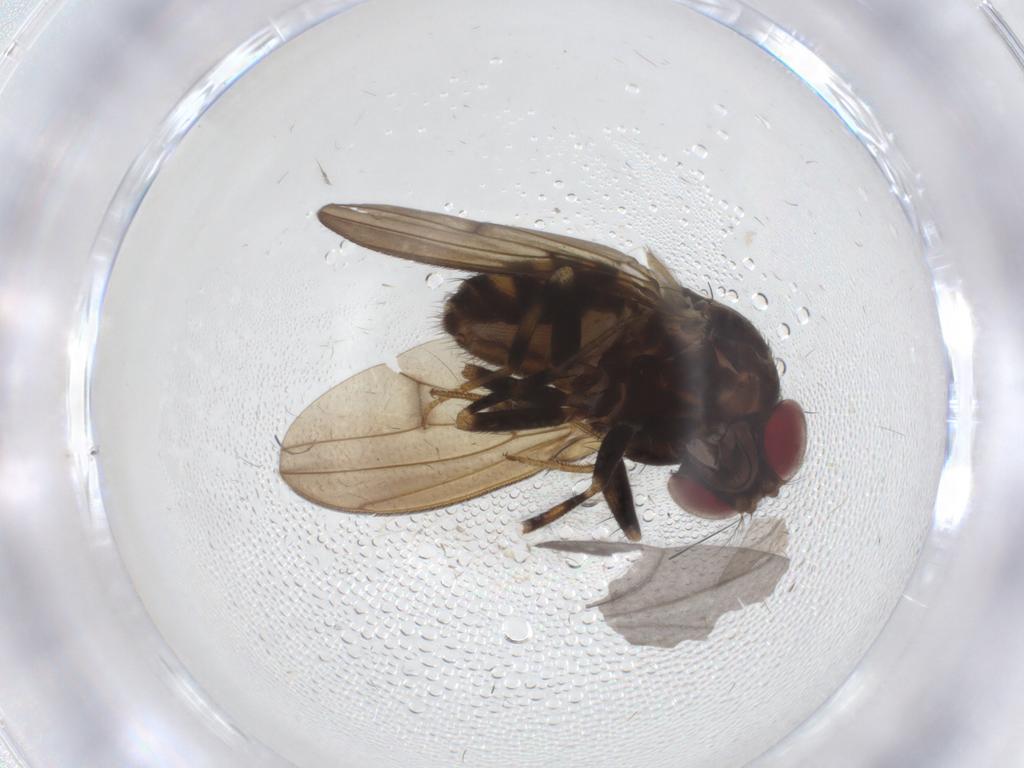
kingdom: Animalia
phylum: Arthropoda
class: Insecta
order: Diptera
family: Drosophilidae
